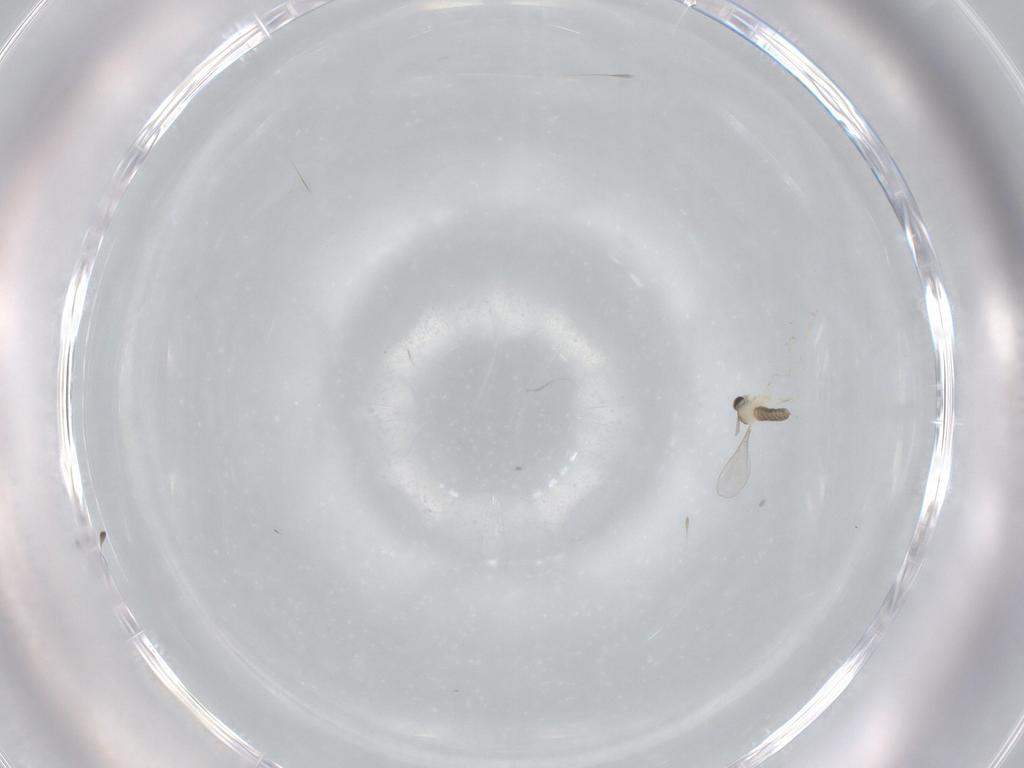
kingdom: Animalia
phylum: Arthropoda
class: Insecta
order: Diptera
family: Cecidomyiidae
